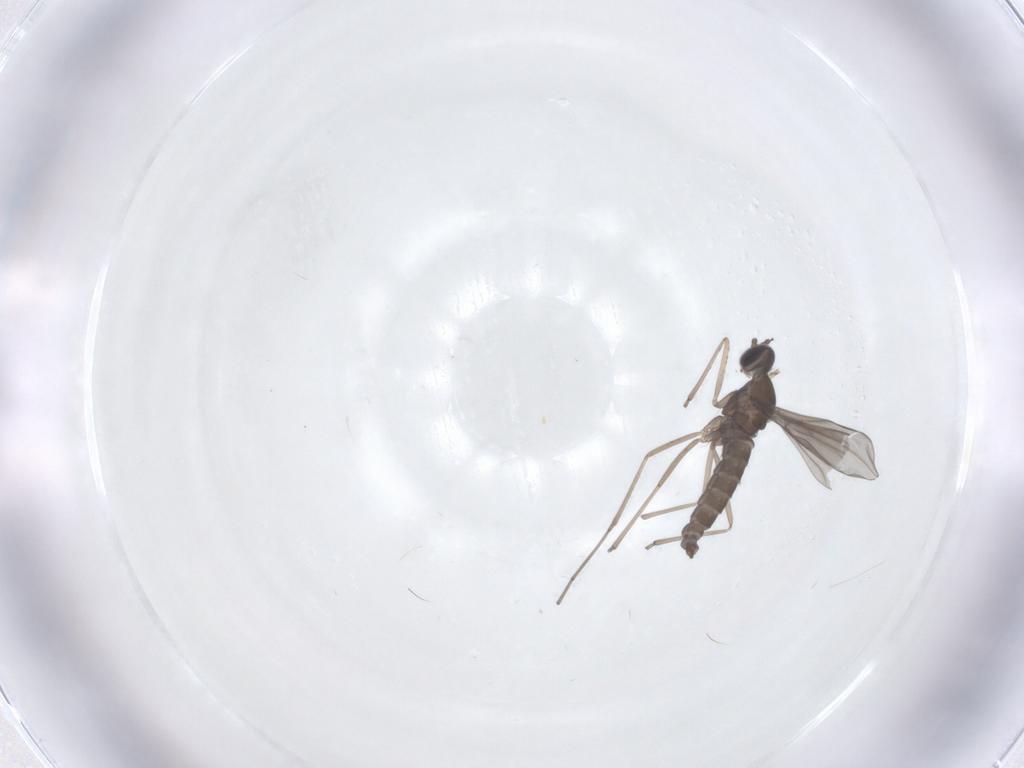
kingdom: Animalia
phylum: Arthropoda
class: Insecta
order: Diptera
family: Cecidomyiidae
